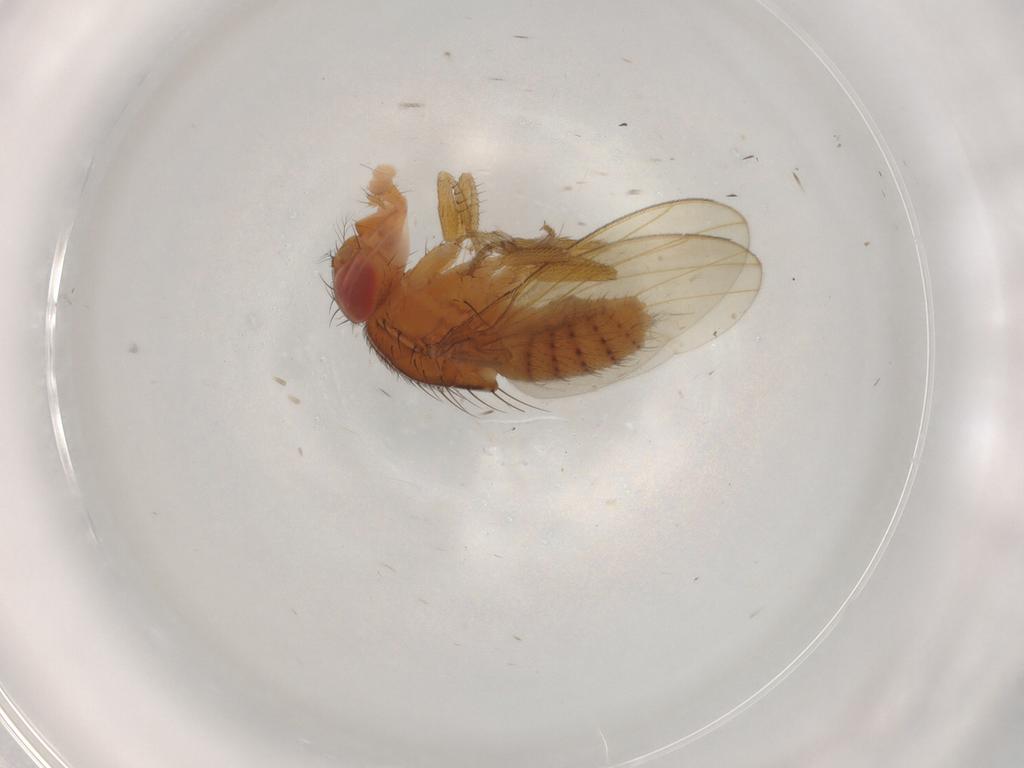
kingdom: Animalia
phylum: Arthropoda
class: Insecta
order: Diptera
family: Drosophilidae
